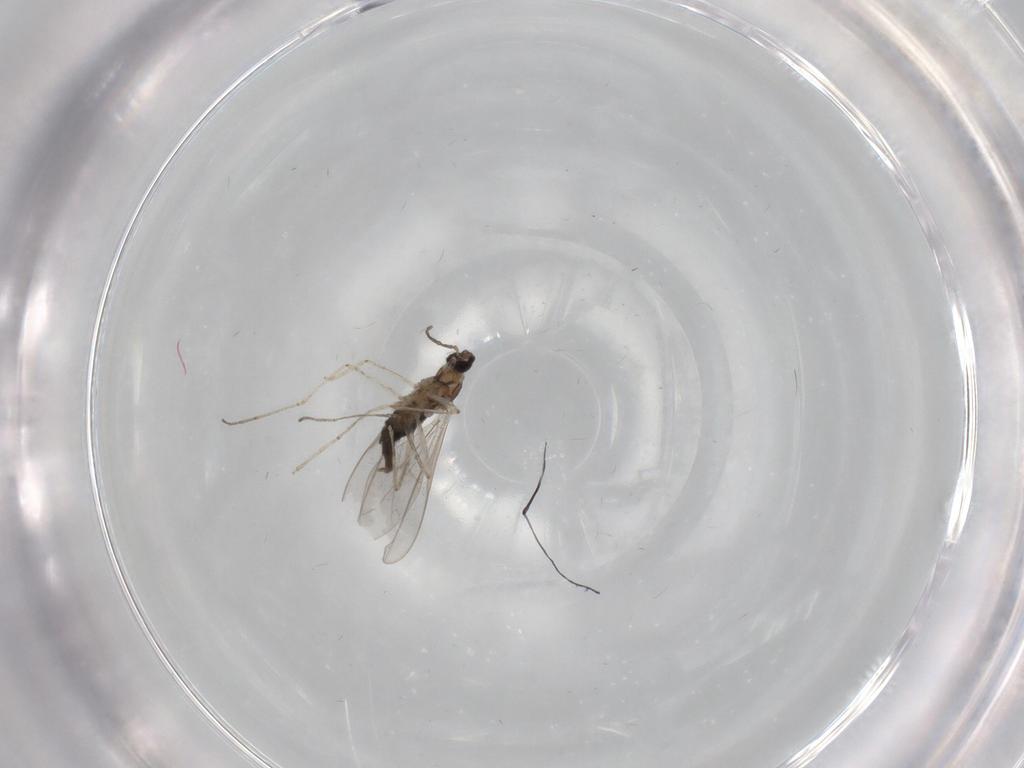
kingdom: Animalia
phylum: Arthropoda
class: Insecta
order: Diptera
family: Cecidomyiidae
